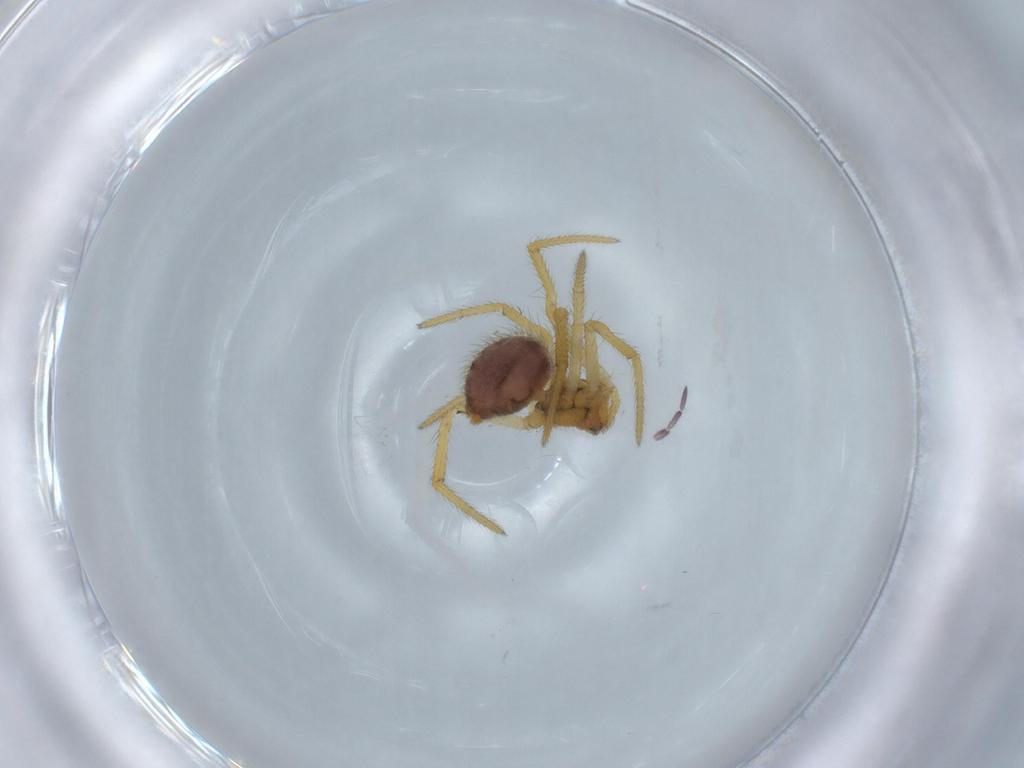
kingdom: Animalia
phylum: Arthropoda
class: Arachnida
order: Araneae
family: Theridiidae
